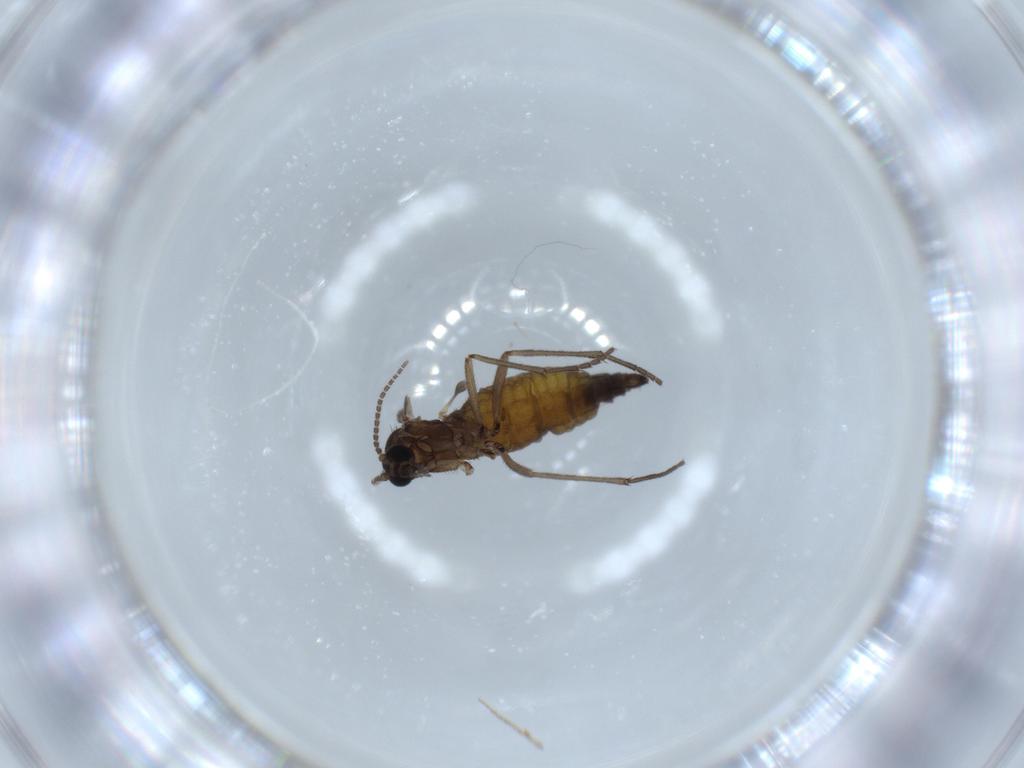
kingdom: Animalia
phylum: Arthropoda
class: Insecta
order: Diptera
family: Sciaridae
